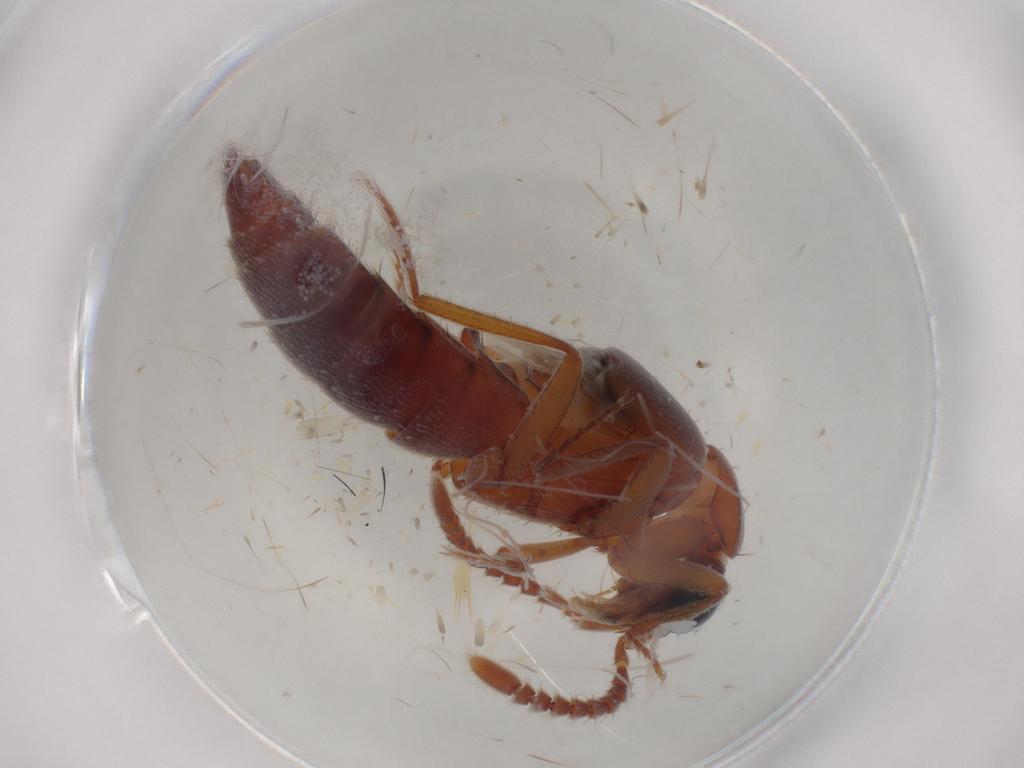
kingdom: Animalia
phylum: Arthropoda
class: Insecta
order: Coleoptera
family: Staphylinidae
